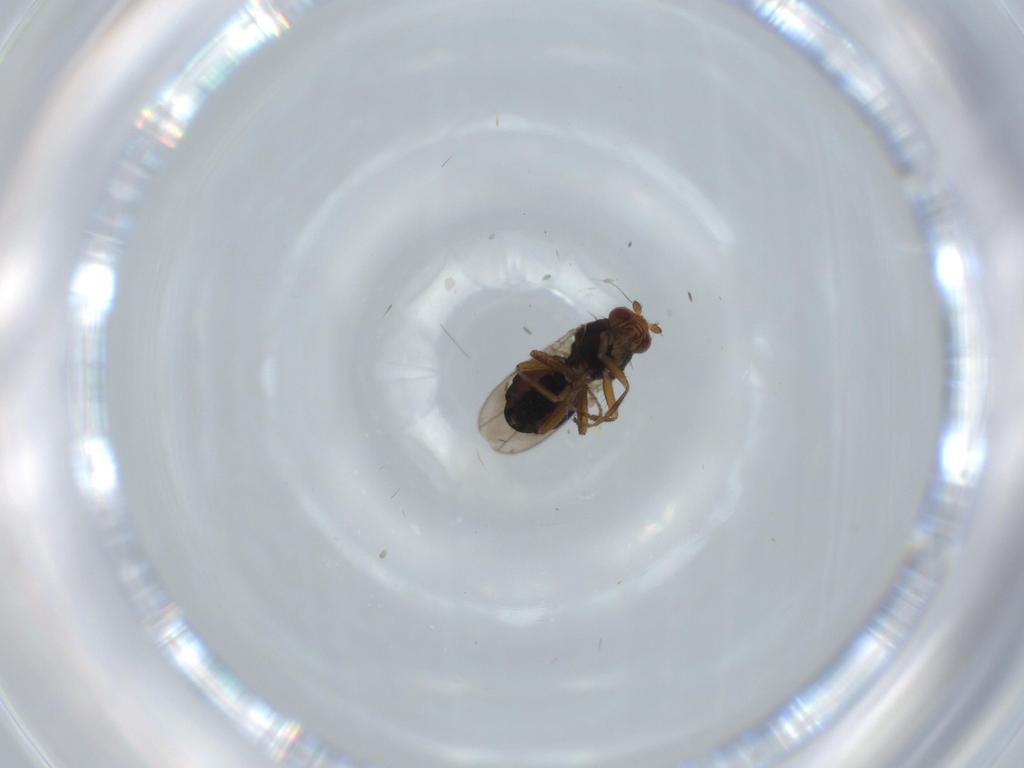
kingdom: Animalia
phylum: Arthropoda
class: Insecta
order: Diptera
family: Sphaeroceridae
